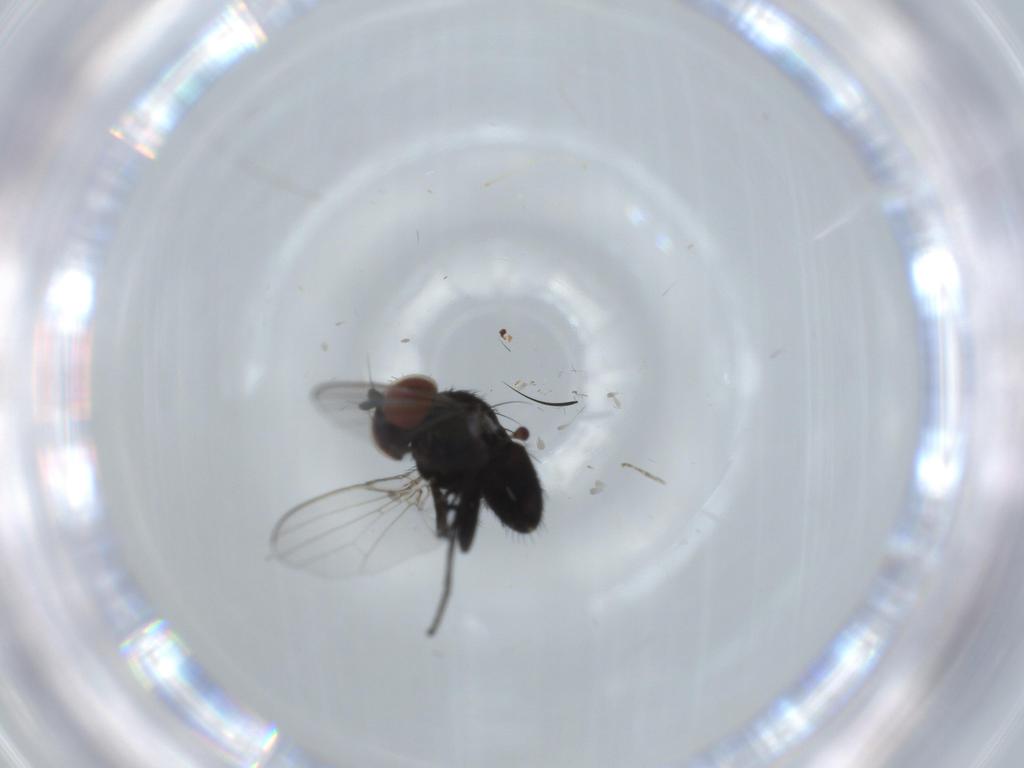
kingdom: Animalia
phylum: Arthropoda
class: Insecta
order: Diptera
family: Milichiidae
